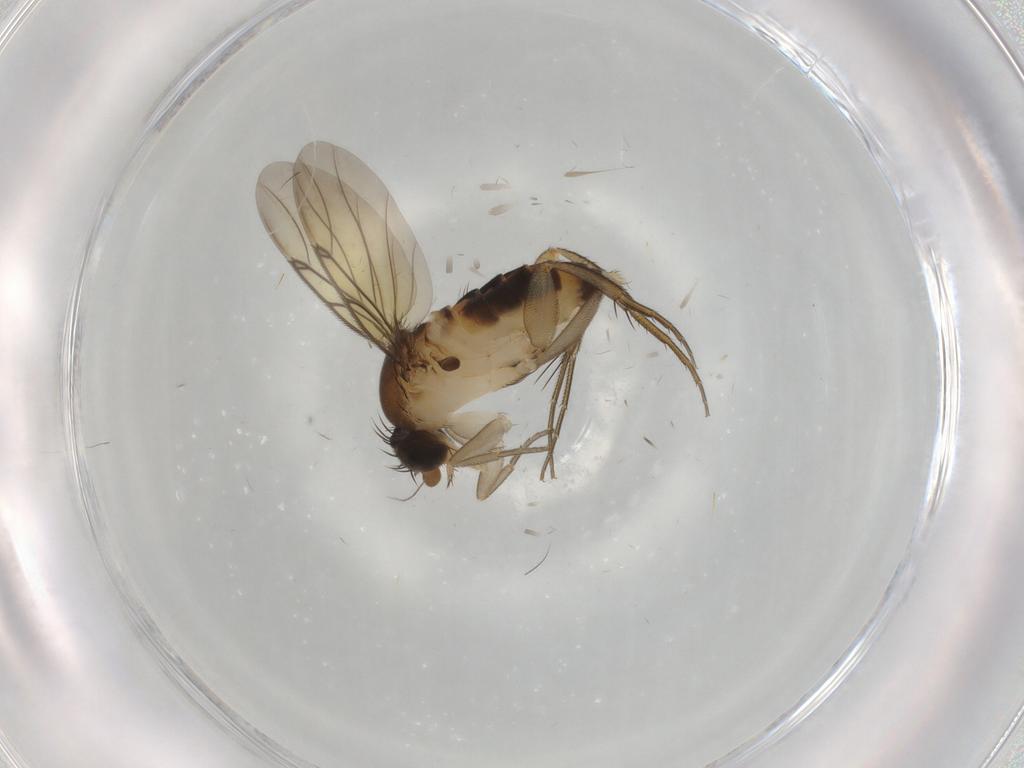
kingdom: Animalia
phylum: Arthropoda
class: Insecta
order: Diptera
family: Phoridae
